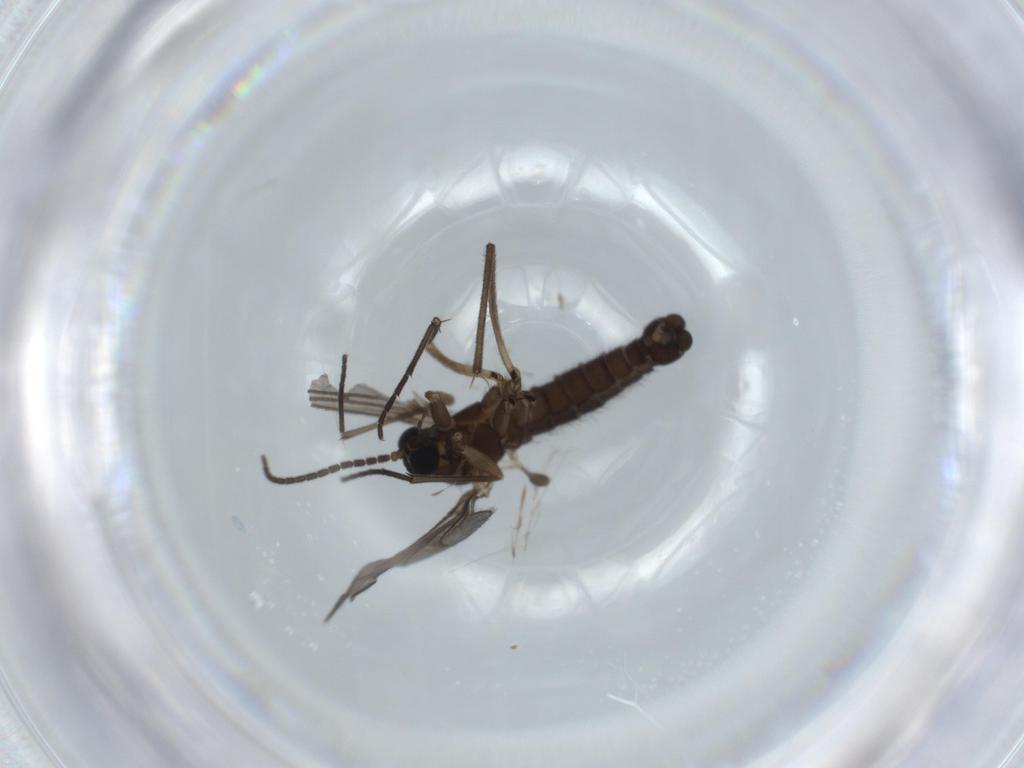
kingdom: Animalia
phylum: Arthropoda
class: Insecta
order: Diptera
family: Sciaridae
